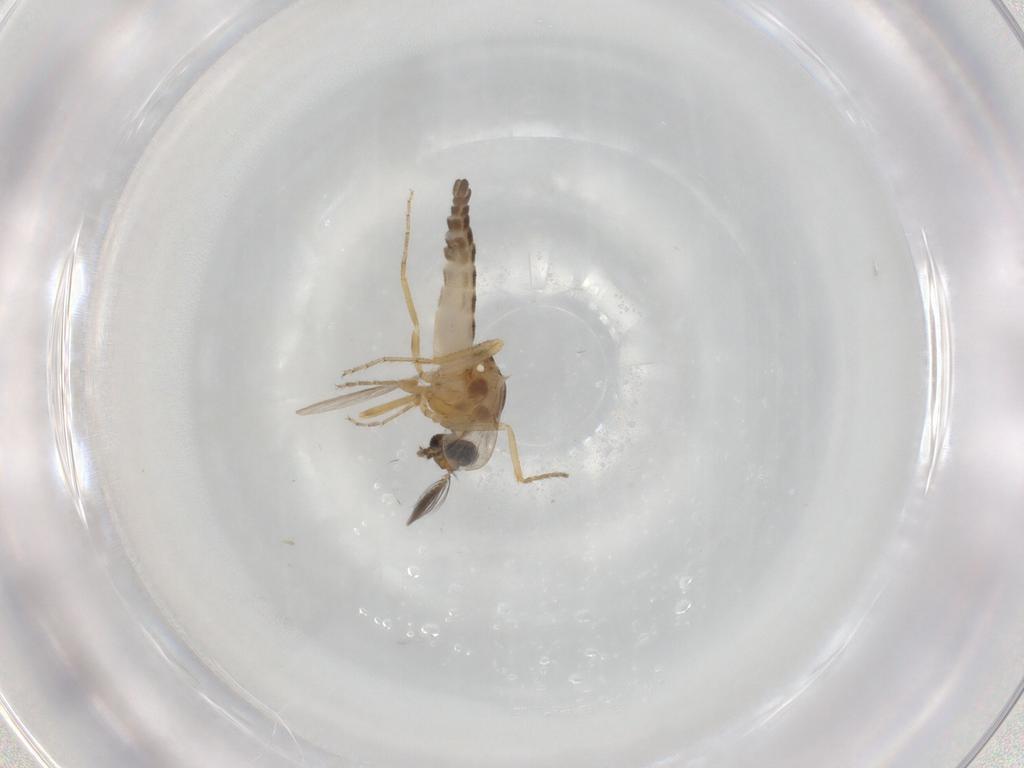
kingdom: Animalia
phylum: Arthropoda
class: Insecta
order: Diptera
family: Ceratopogonidae
